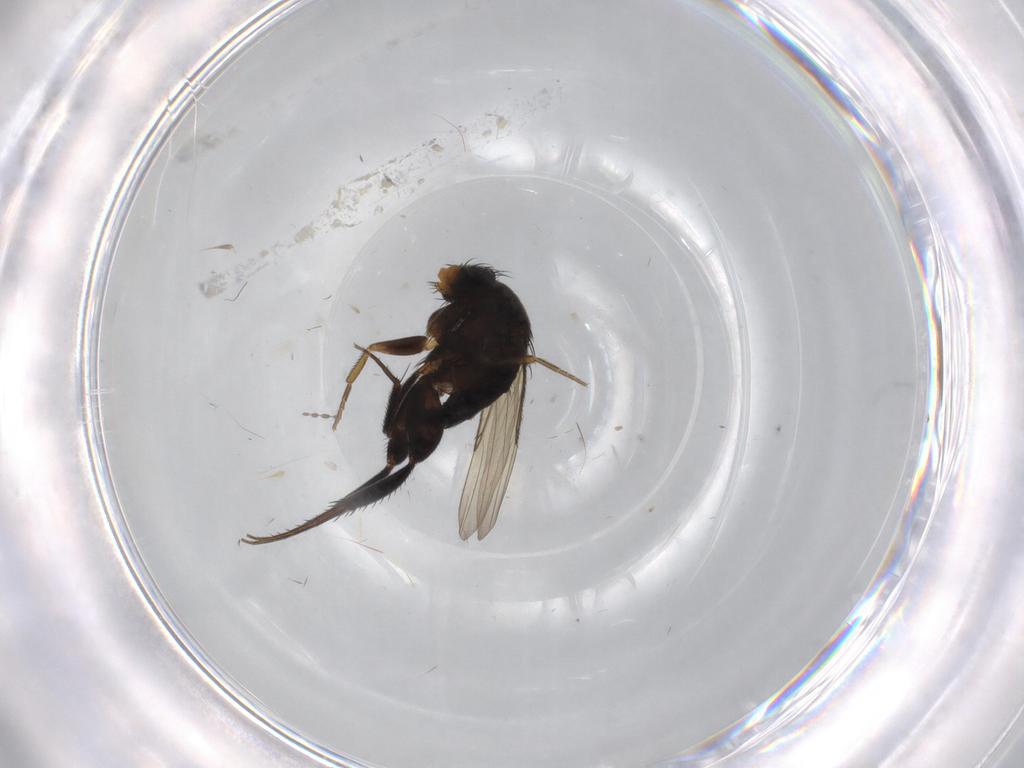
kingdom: Animalia
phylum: Arthropoda
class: Insecta
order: Diptera
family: Phoridae
